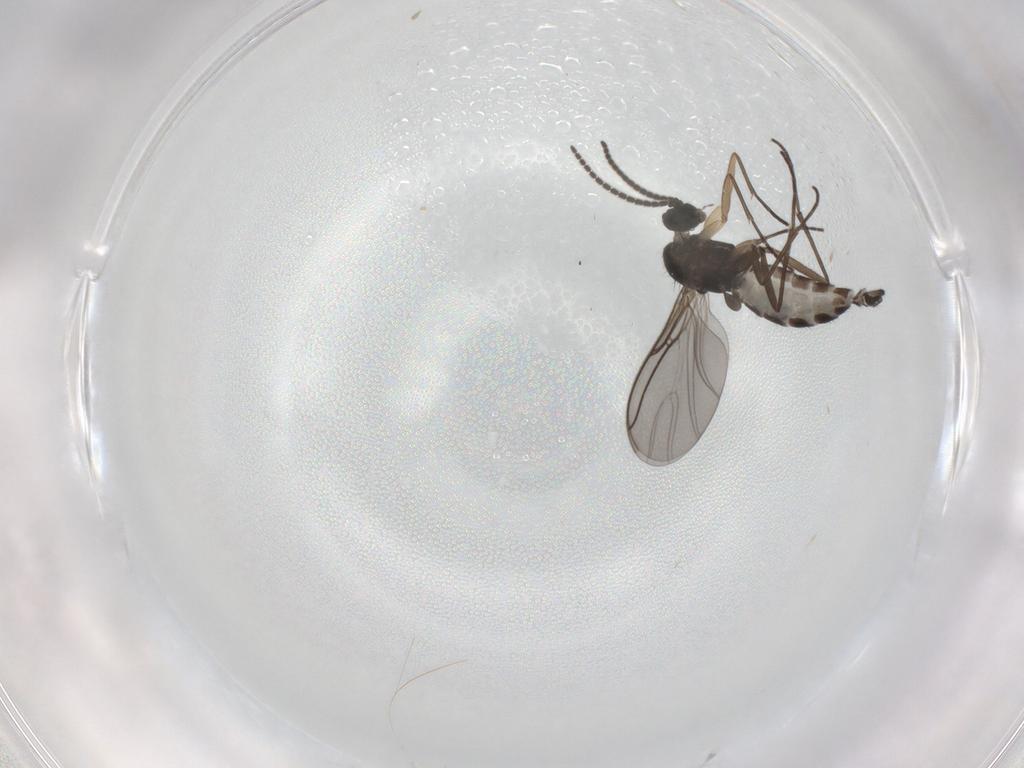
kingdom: Animalia
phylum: Arthropoda
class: Insecta
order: Diptera
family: Sciaridae
